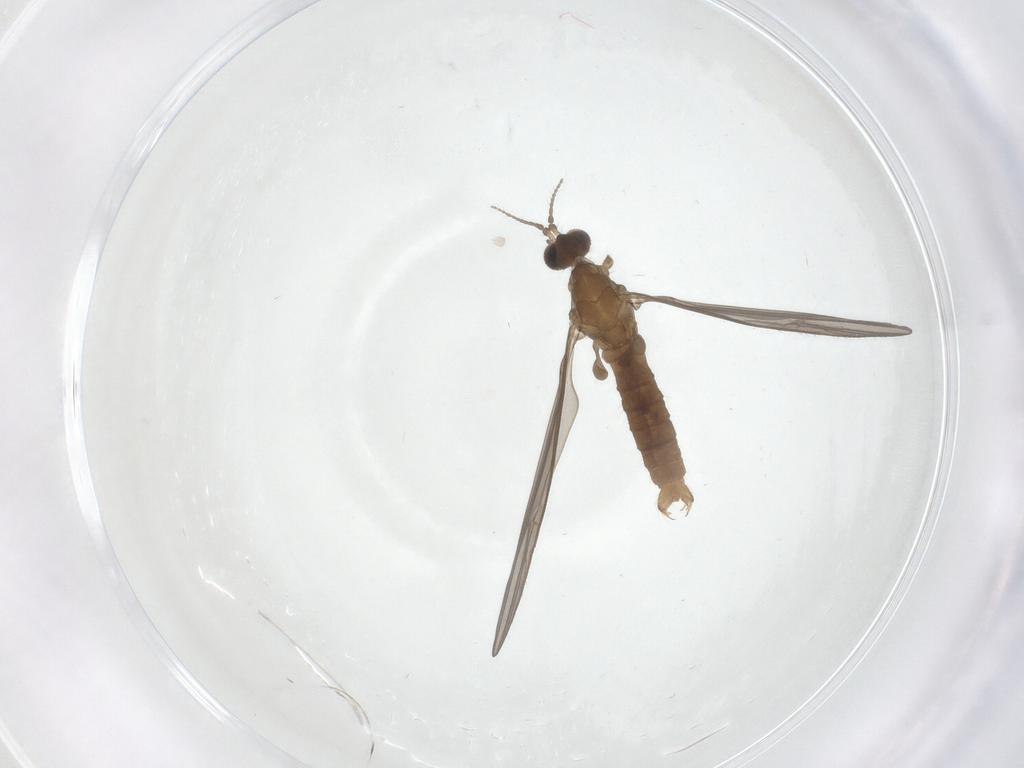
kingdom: Animalia
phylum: Arthropoda
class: Insecta
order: Diptera
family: Limoniidae
